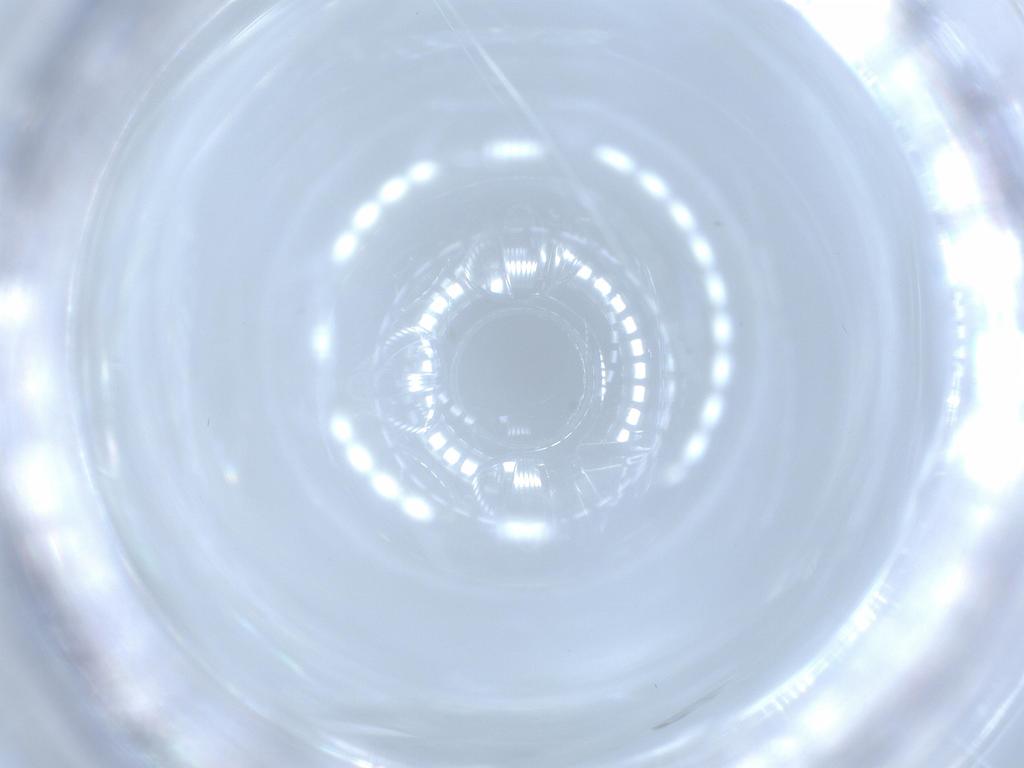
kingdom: Animalia
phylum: Arthropoda
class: Insecta
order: Diptera
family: Cecidomyiidae
